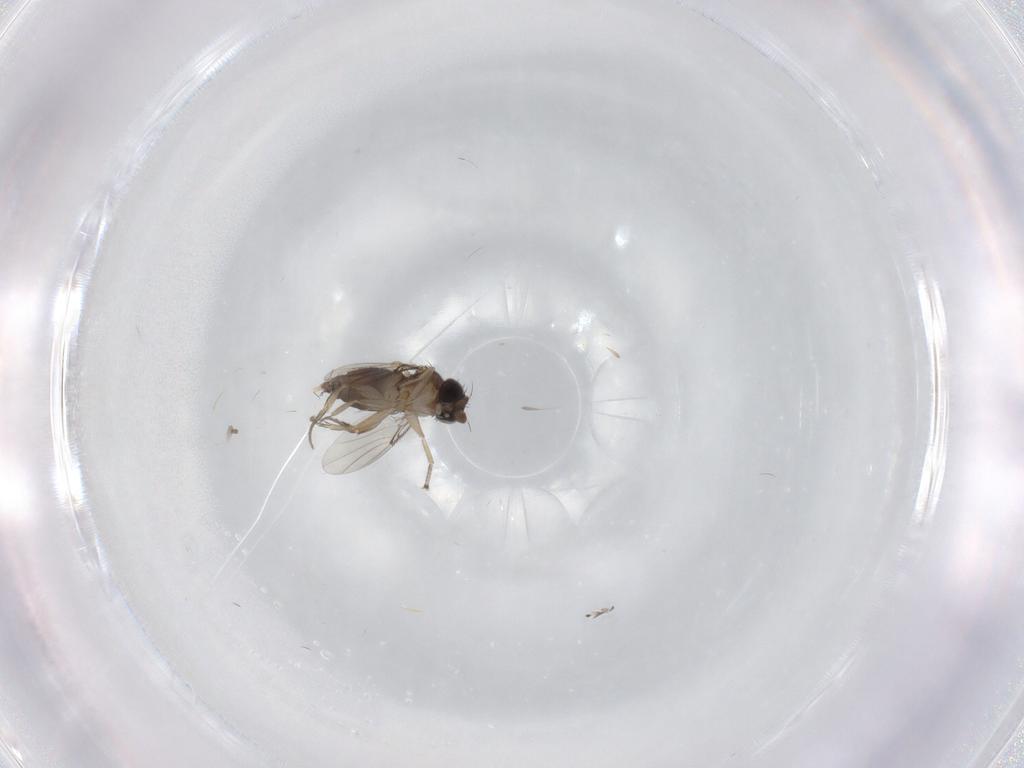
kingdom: Animalia
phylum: Arthropoda
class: Insecta
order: Diptera
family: Phoridae
